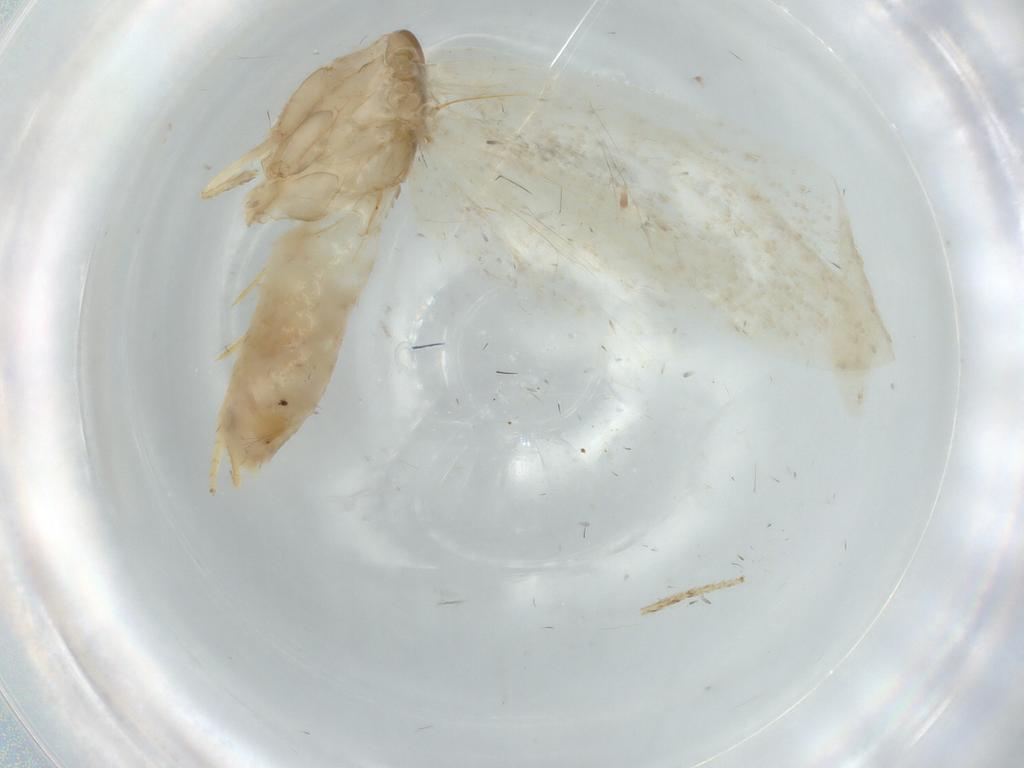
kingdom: Animalia
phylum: Arthropoda
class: Insecta
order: Lepidoptera
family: Tortricidae
